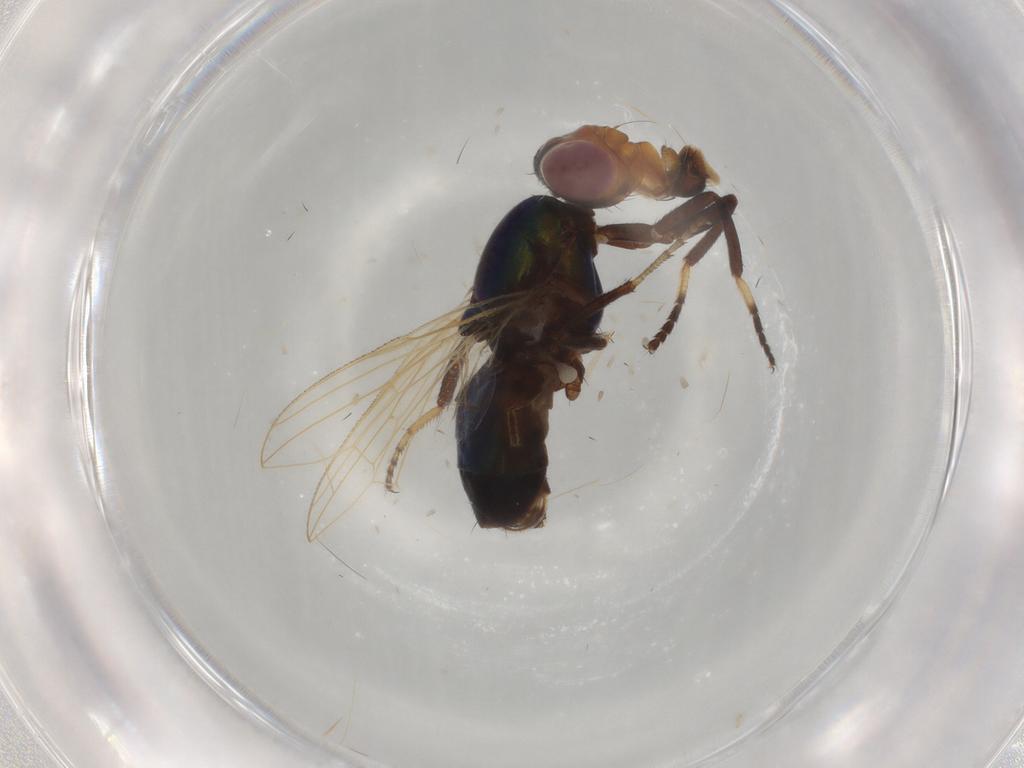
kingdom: Animalia
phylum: Arthropoda
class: Insecta
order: Diptera
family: Ulidiidae
